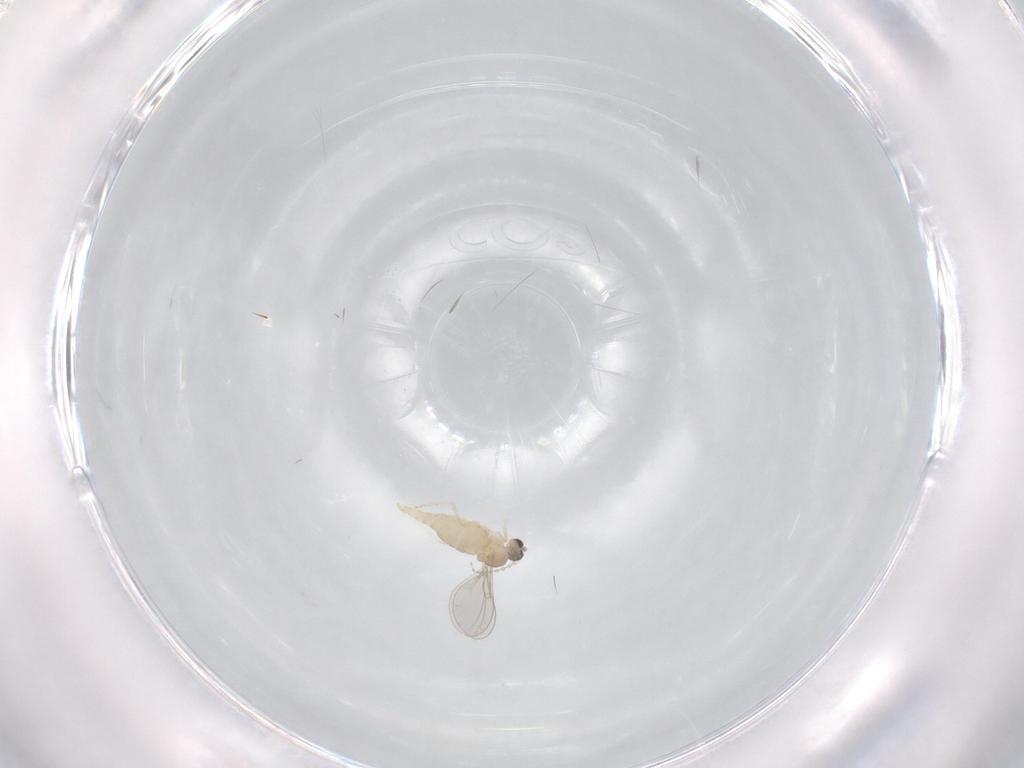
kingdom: Animalia
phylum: Arthropoda
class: Insecta
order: Diptera
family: Cecidomyiidae
